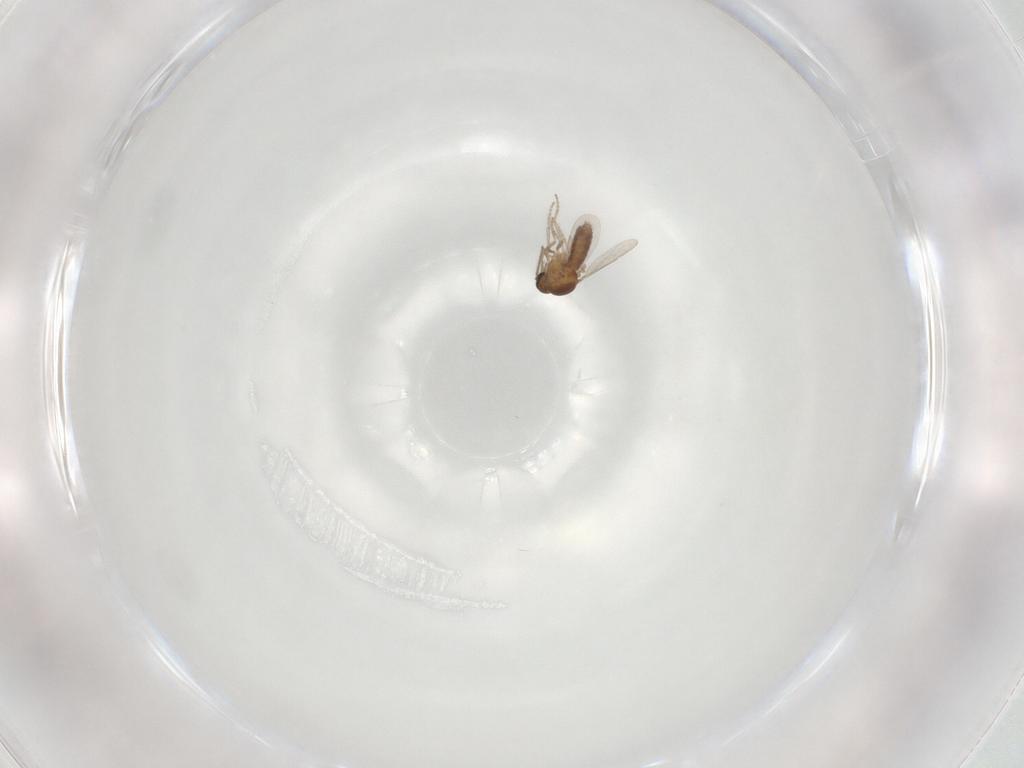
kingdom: Animalia
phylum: Arthropoda
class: Insecta
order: Diptera
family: Ceratopogonidae
